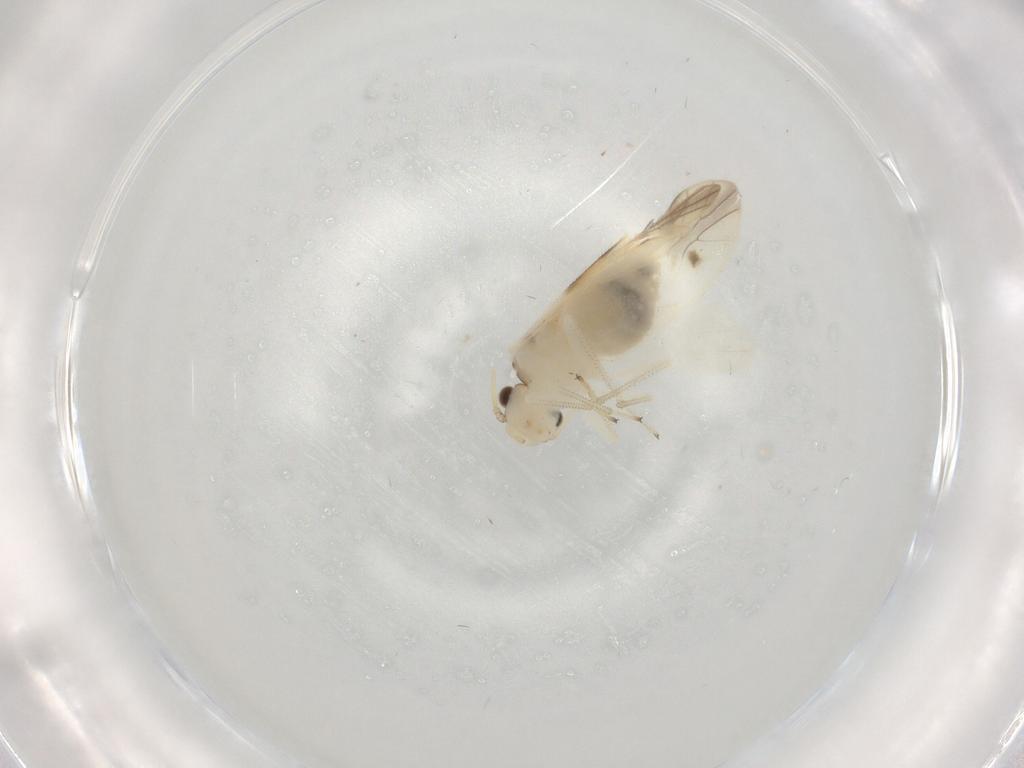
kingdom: Animalia
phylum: Arthropoda
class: Insecta
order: Psocodea
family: Caeciliusidae
